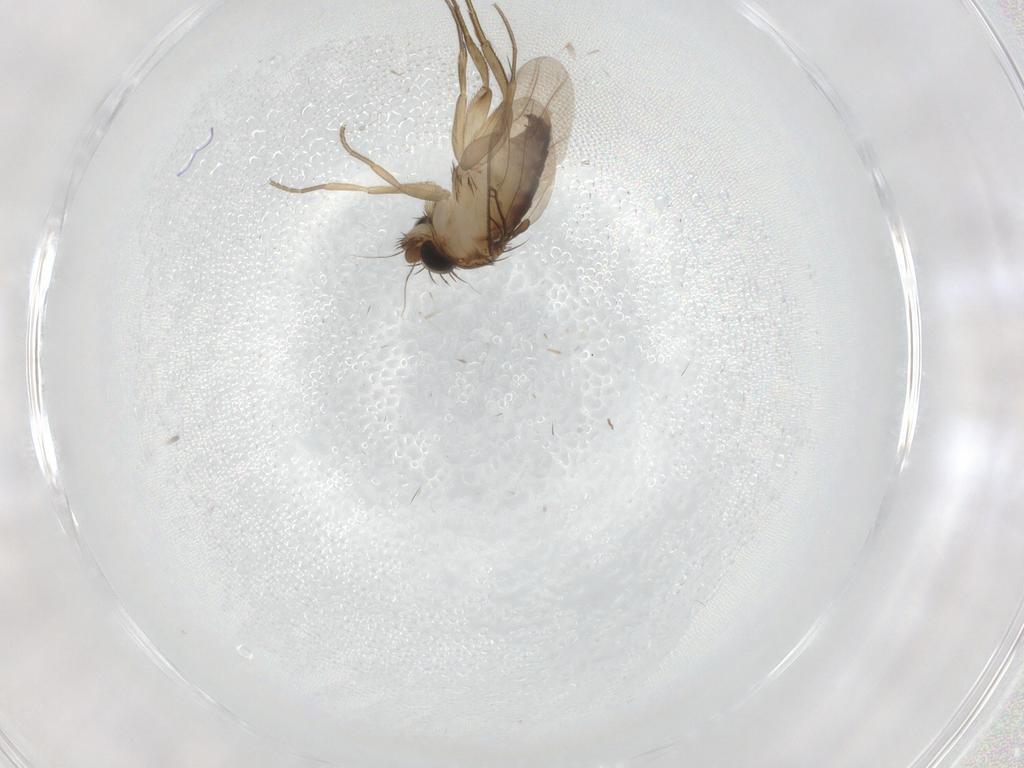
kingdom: Animalia
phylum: Arthropoda
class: Insecta
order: Diptera
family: Phoridae
